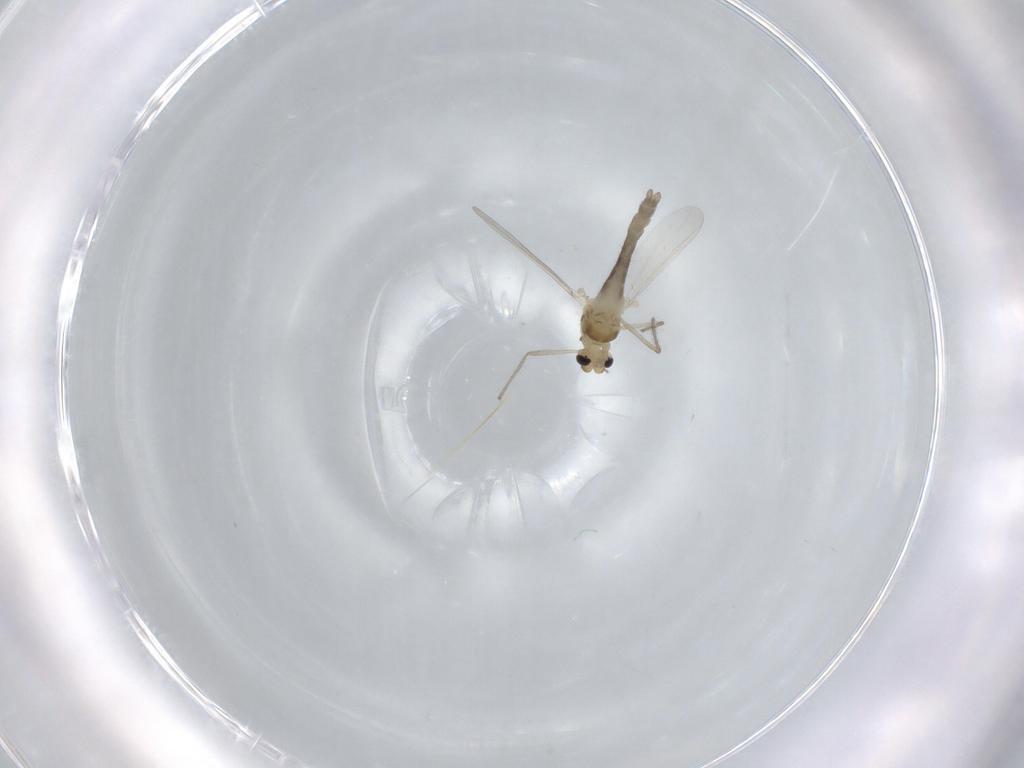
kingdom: Animalia
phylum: Arthropoda
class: Insecta
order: Diptera
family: Chironomidae
